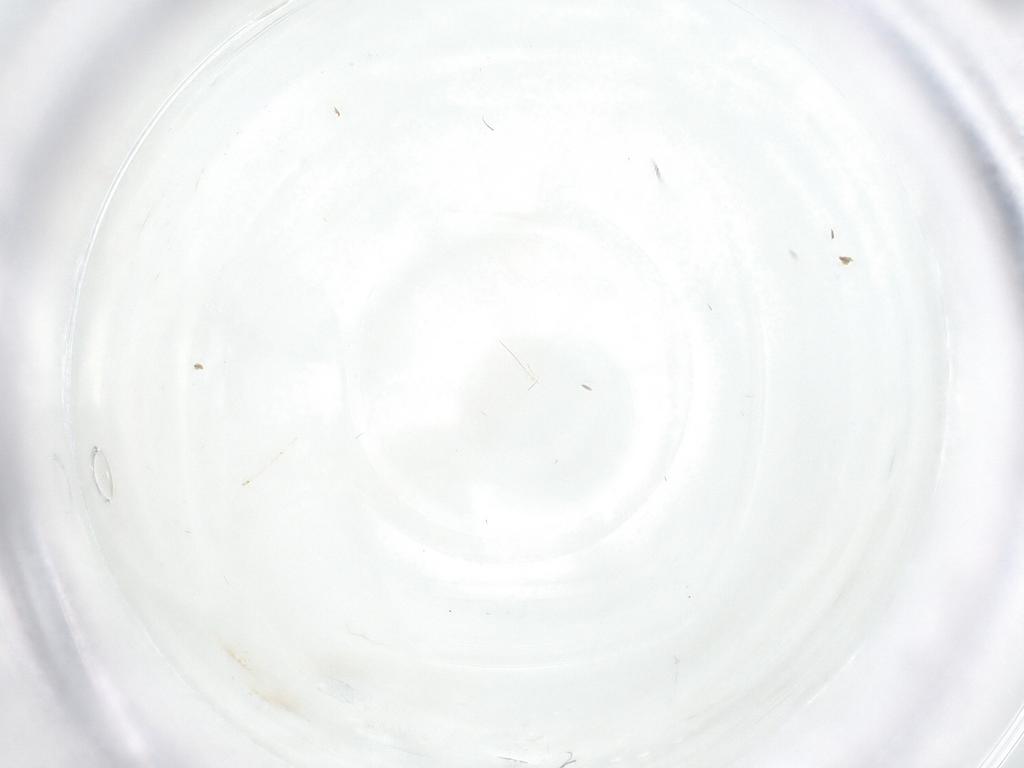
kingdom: Animalia
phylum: Arthropoda
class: Insecta
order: Diptera
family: Cecidomyiidae
